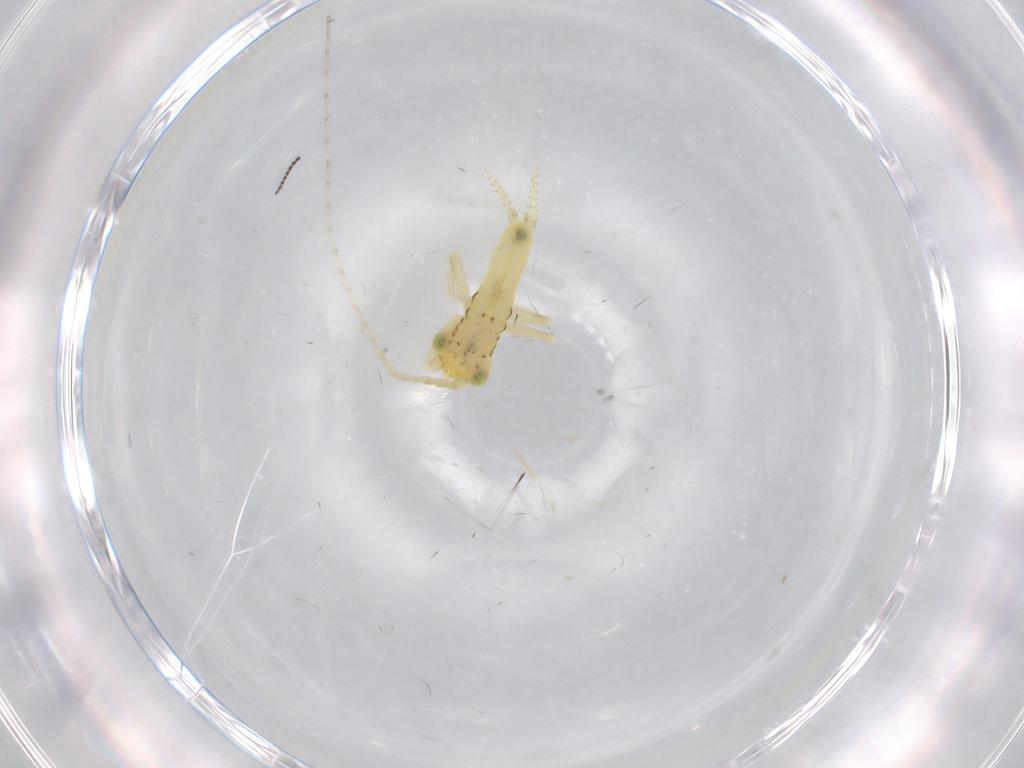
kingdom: Animalia
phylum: Arthropoda
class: Insecta
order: Orthoptera
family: Trigonidiidae
